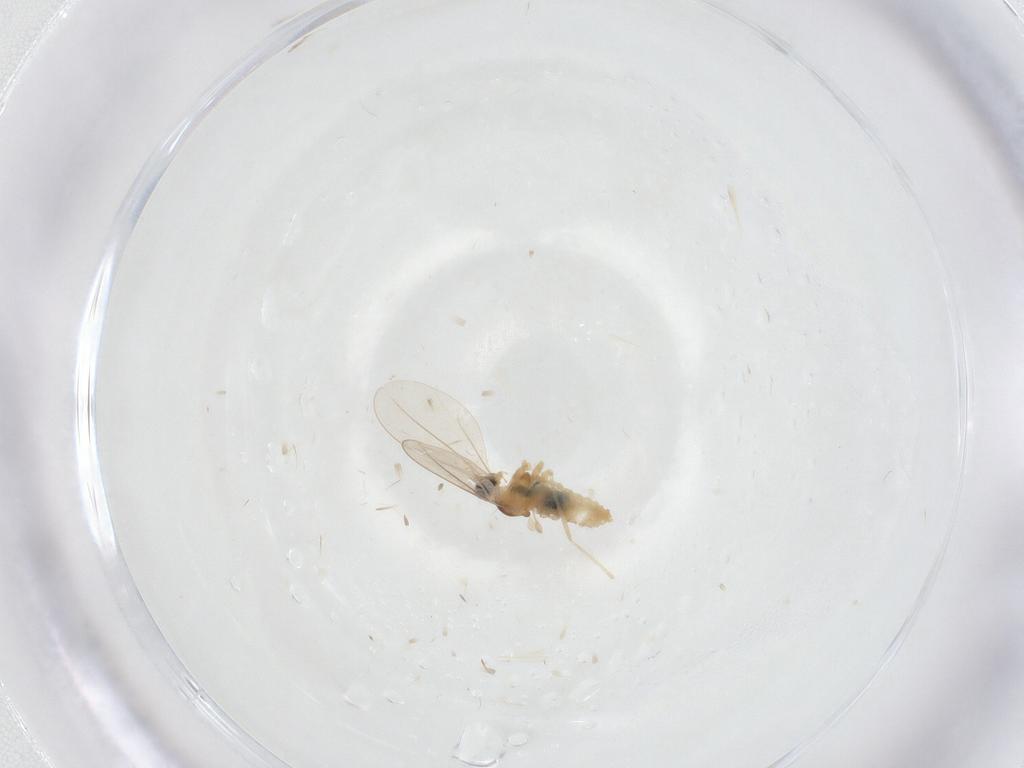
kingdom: Animalia
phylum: Arthropoda
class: Insecta
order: Diptera
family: Cecidomyiidae
